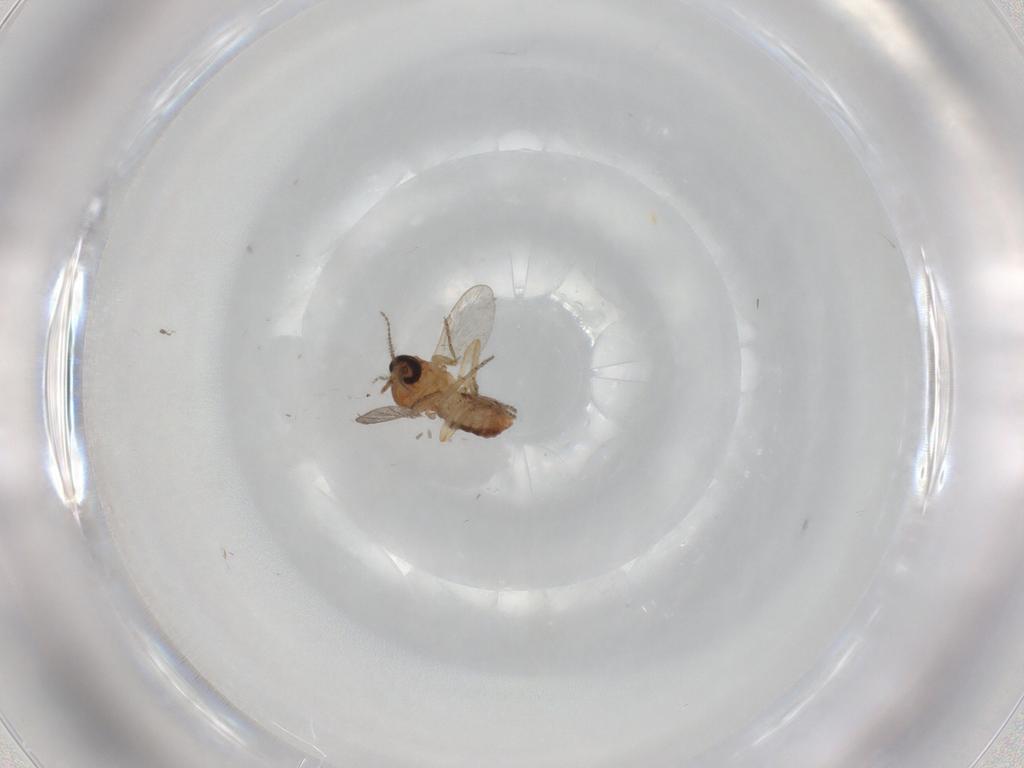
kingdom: Animalia
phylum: Arthropoda
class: Insecta
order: Diptera
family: Ceratopogonidae
